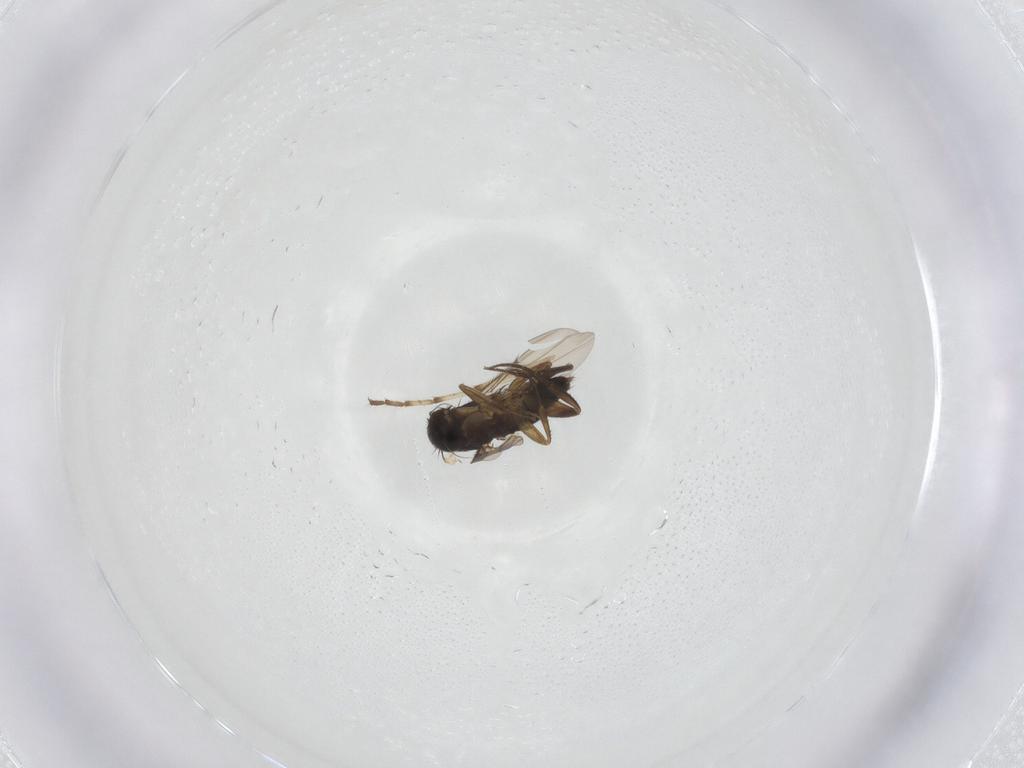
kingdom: Animalia
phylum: Arthropoda
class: Insecta
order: Diptera
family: Phoridae
